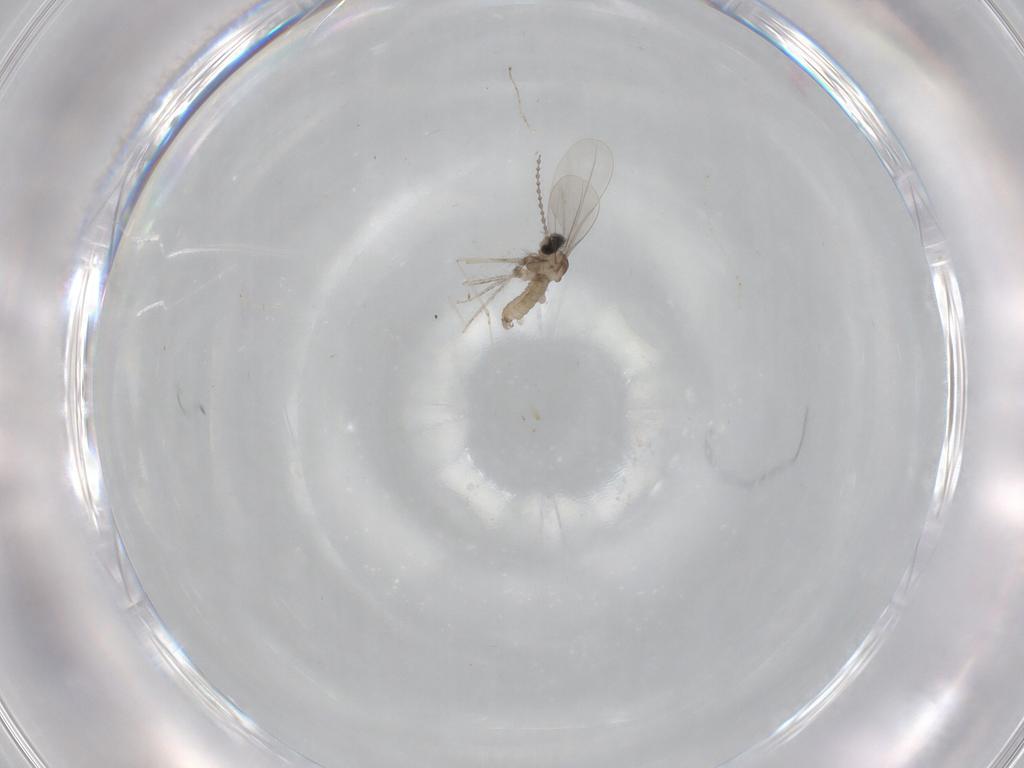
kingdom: Animalia
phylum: Arthropoda
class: Insecta
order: Diptera
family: Cecidomyiidae
